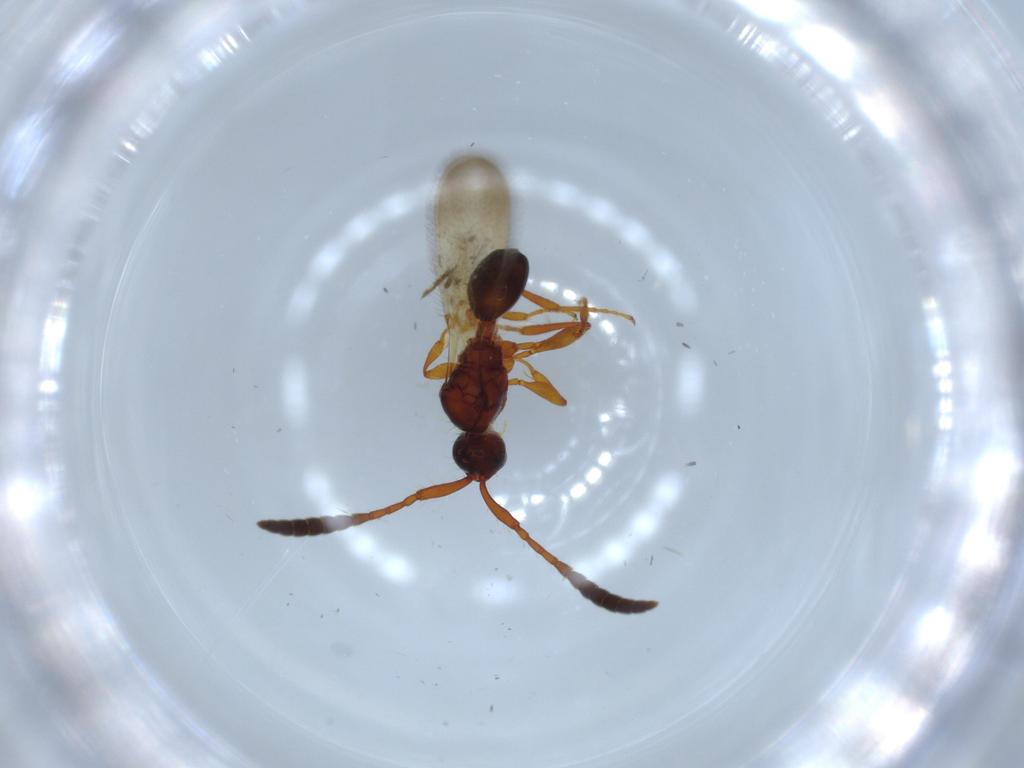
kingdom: Animalia
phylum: Arthropoda
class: Insecta
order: Hymenoptera
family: Diapriidae
